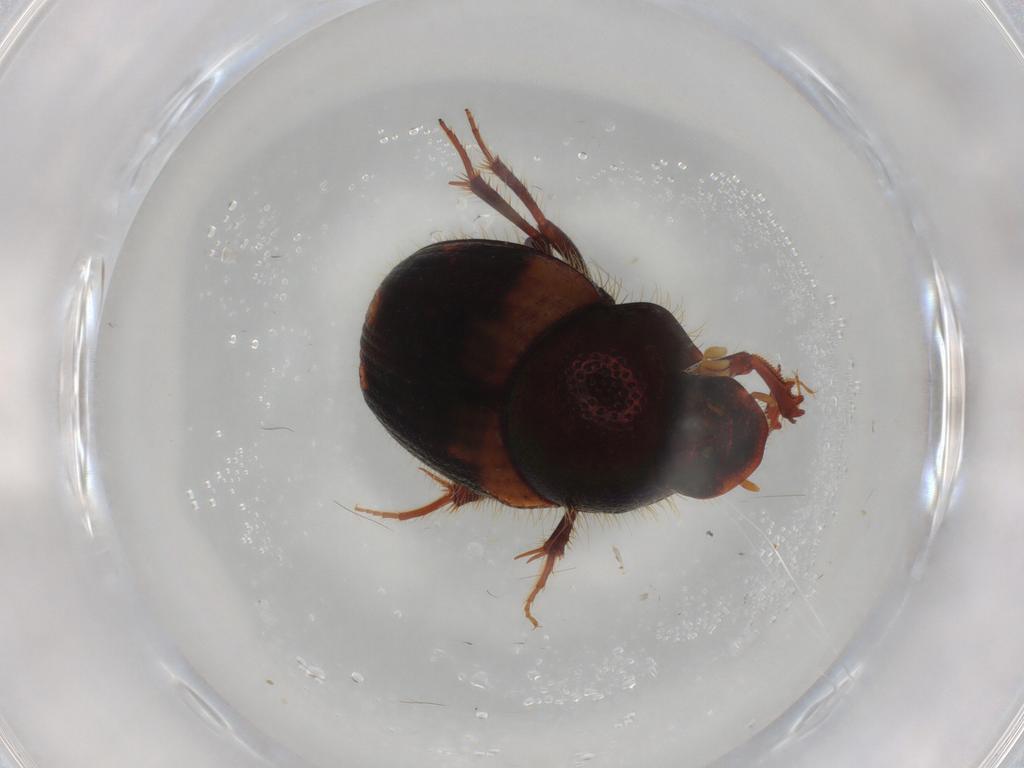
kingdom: Animalia
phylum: Arthropoda
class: Insecta
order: Coleoptera
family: Scarabaeidae
